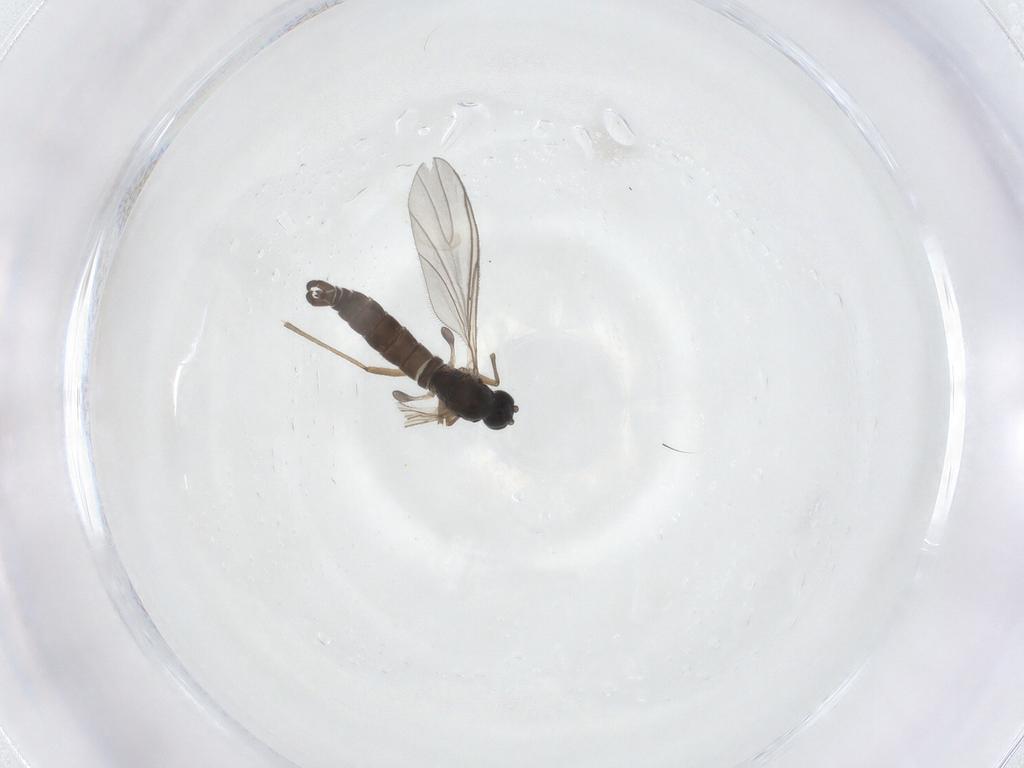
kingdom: Animalia
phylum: Arthropoda
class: Insecta
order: Diptera
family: Sciaridae
